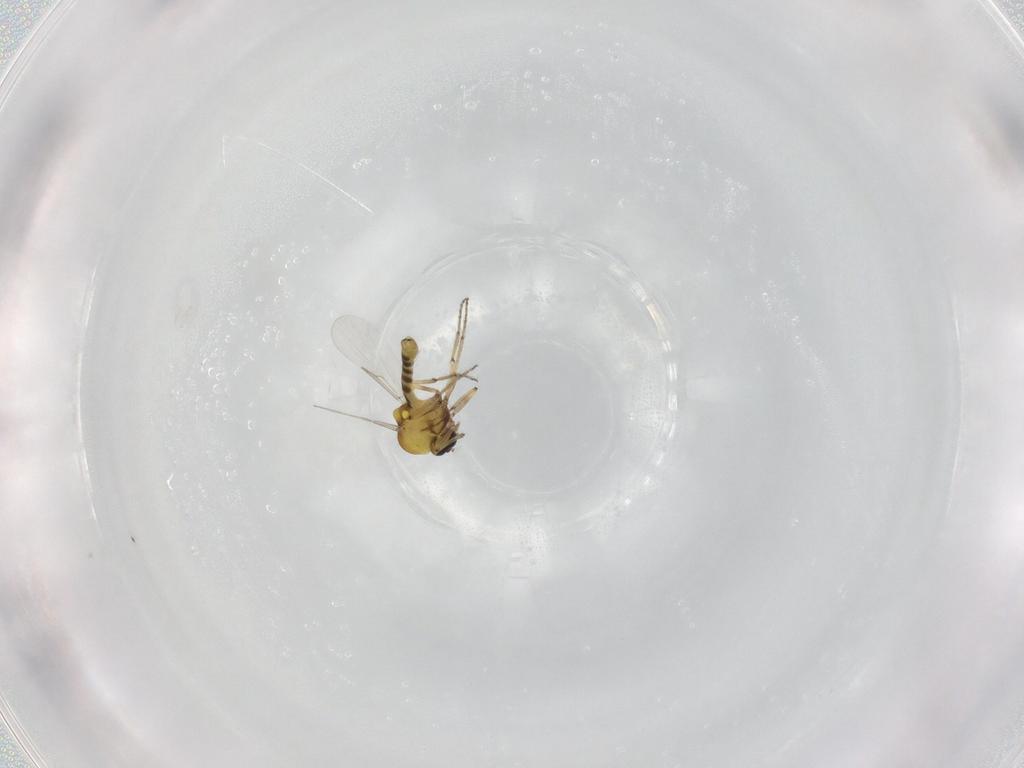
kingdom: Animalia
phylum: Arthropoda
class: Insecta
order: Diptera
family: Ceratopogonidae
